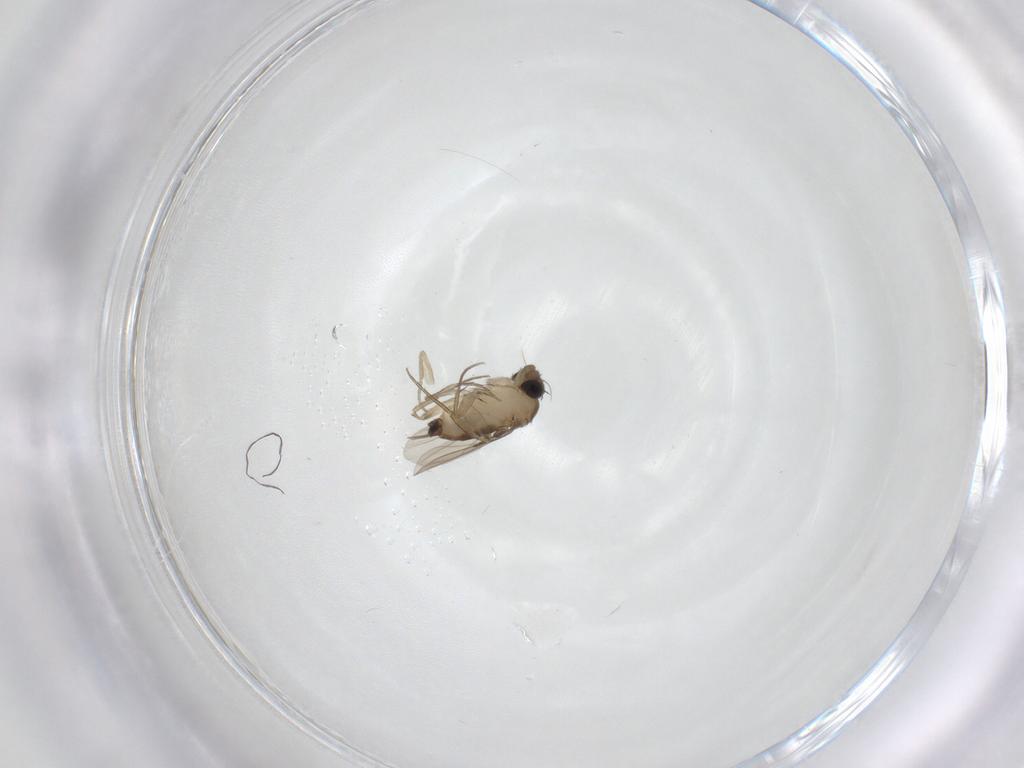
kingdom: Animalia
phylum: Arthropoda
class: Insecta
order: Diptera
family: Phoridae
